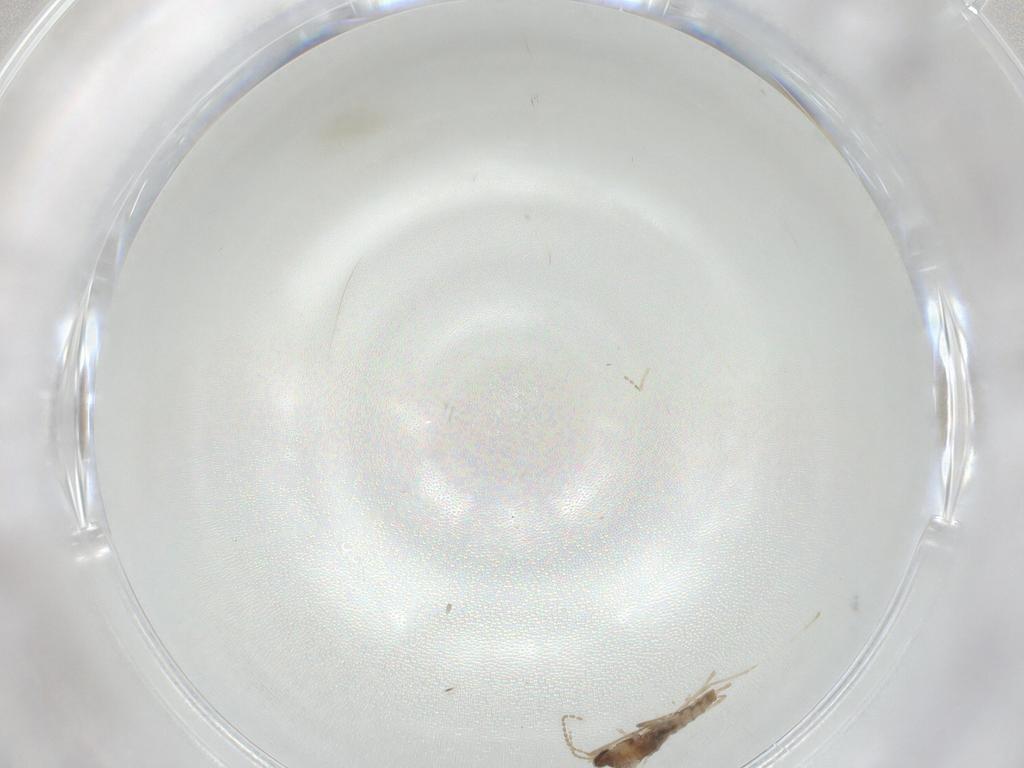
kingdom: Animalia
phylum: Arthropoda
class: Insecta
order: Diptera
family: Cecidomyiidae
